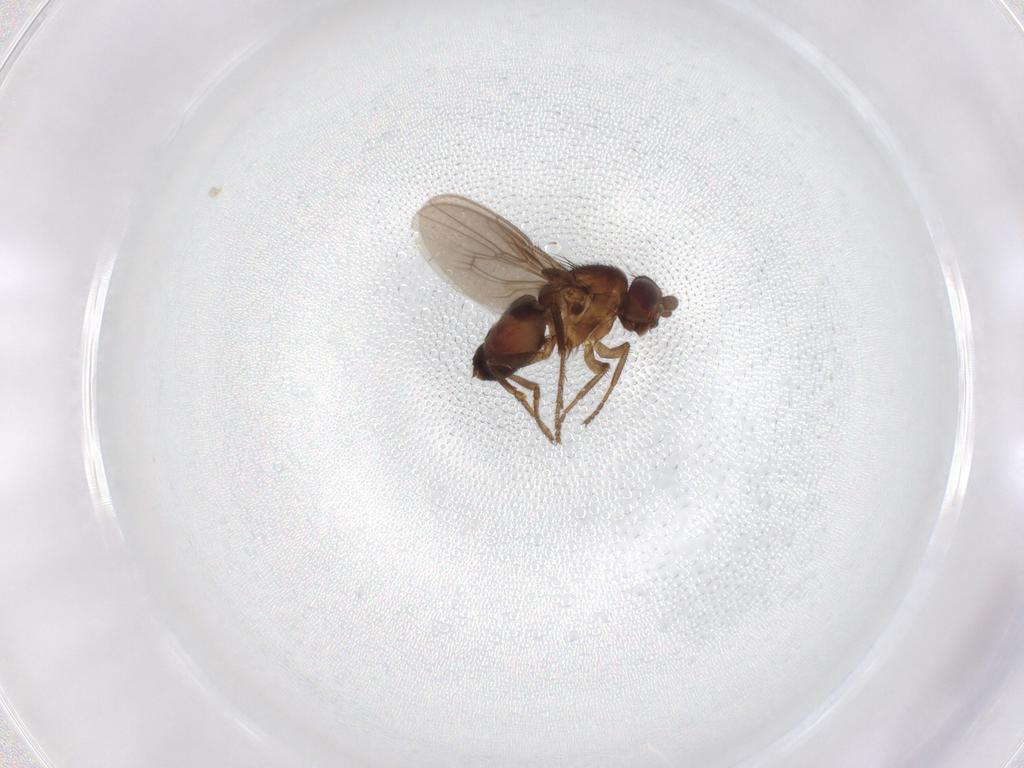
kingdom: Animalia
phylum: Arthropoda
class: Insecta
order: Diptera
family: Sphaeroceridae
